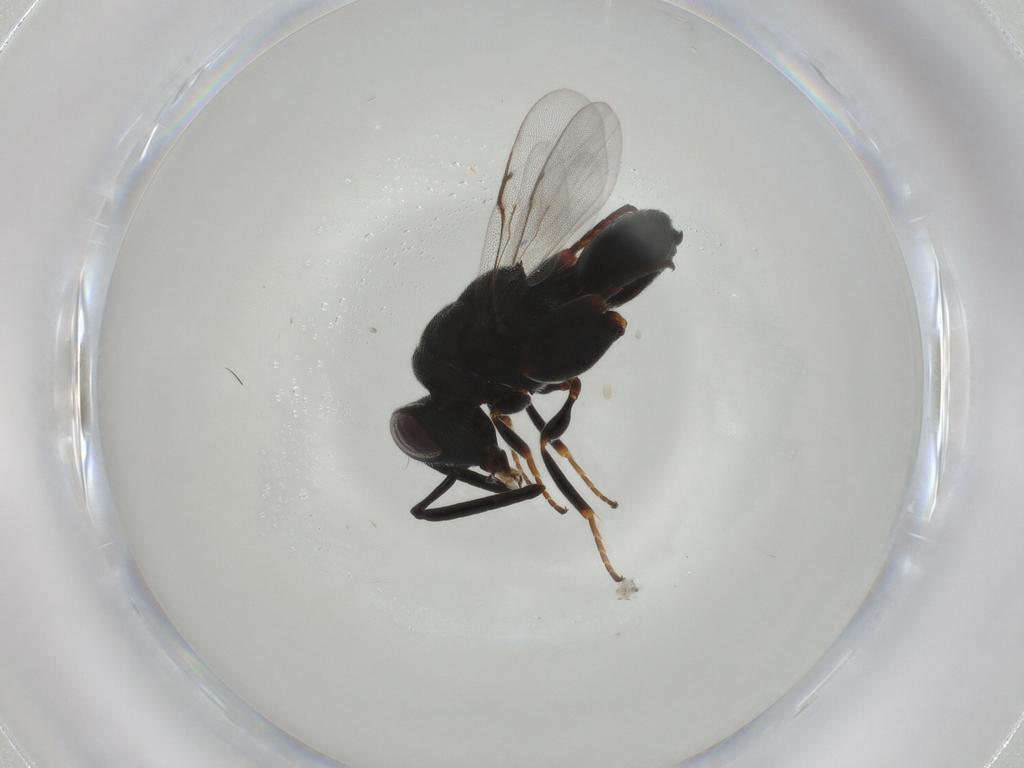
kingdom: Animalia
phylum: Arthropoda
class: Insecta
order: Hymenoptera
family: Chalcididae
